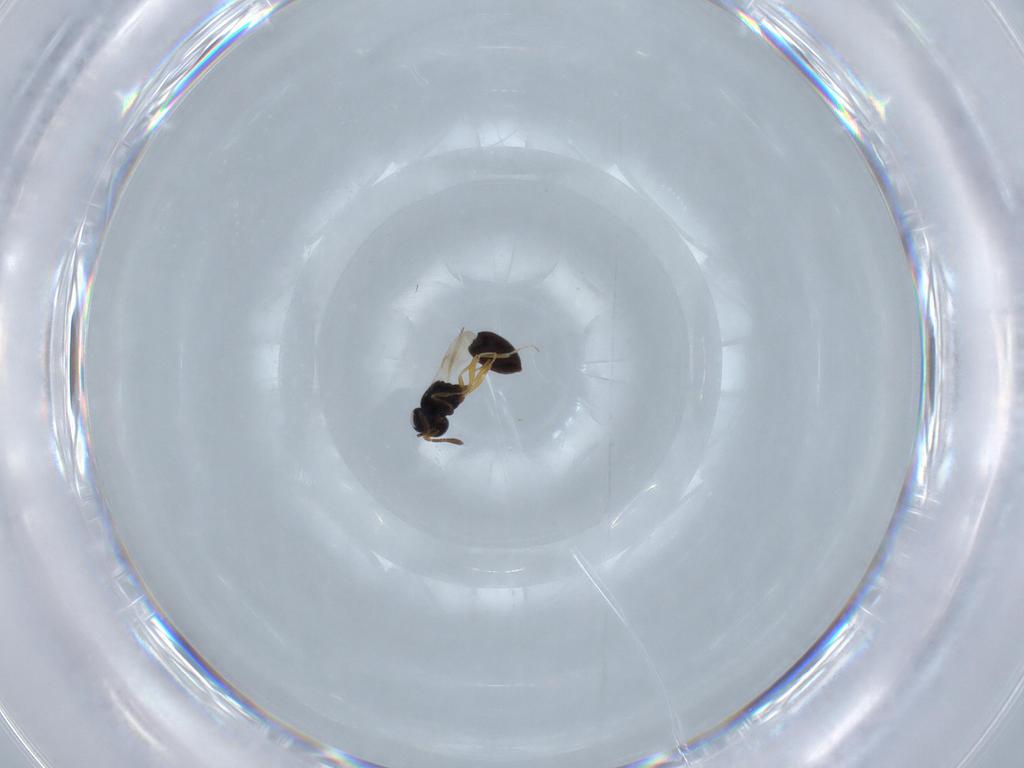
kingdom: Animalia
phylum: Arthropoda
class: Insecta
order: Hymenoptera
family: Scelionidae
